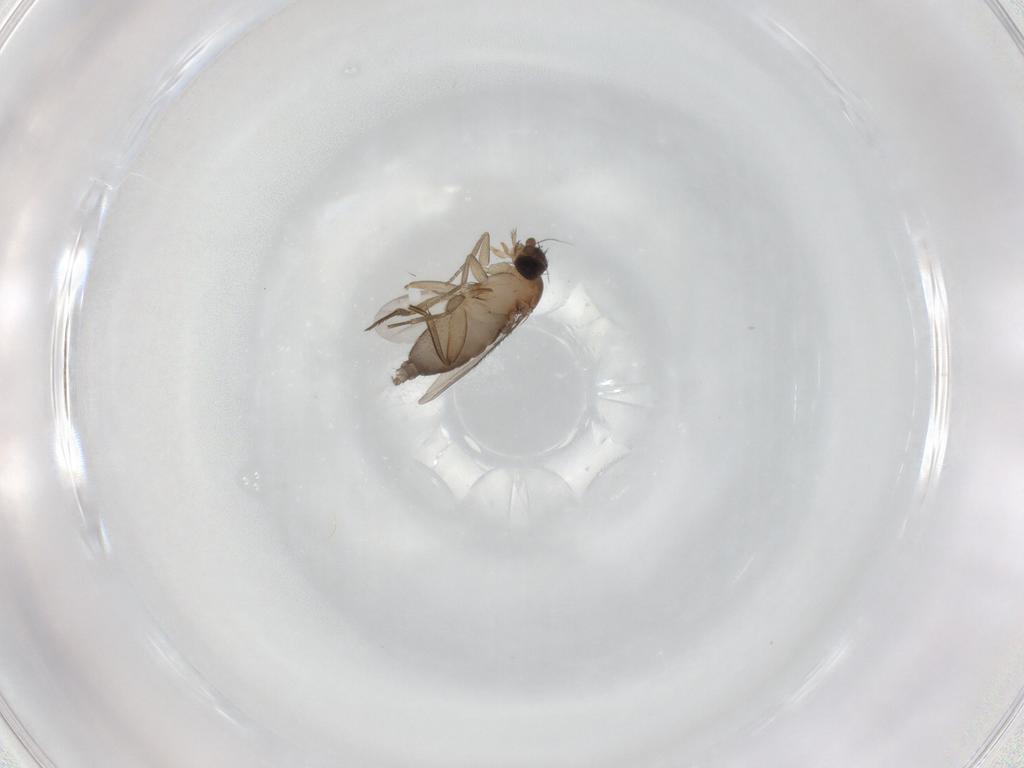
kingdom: Animalia
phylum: Arthropoda
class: Insecta
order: Diptera
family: Phoridae
